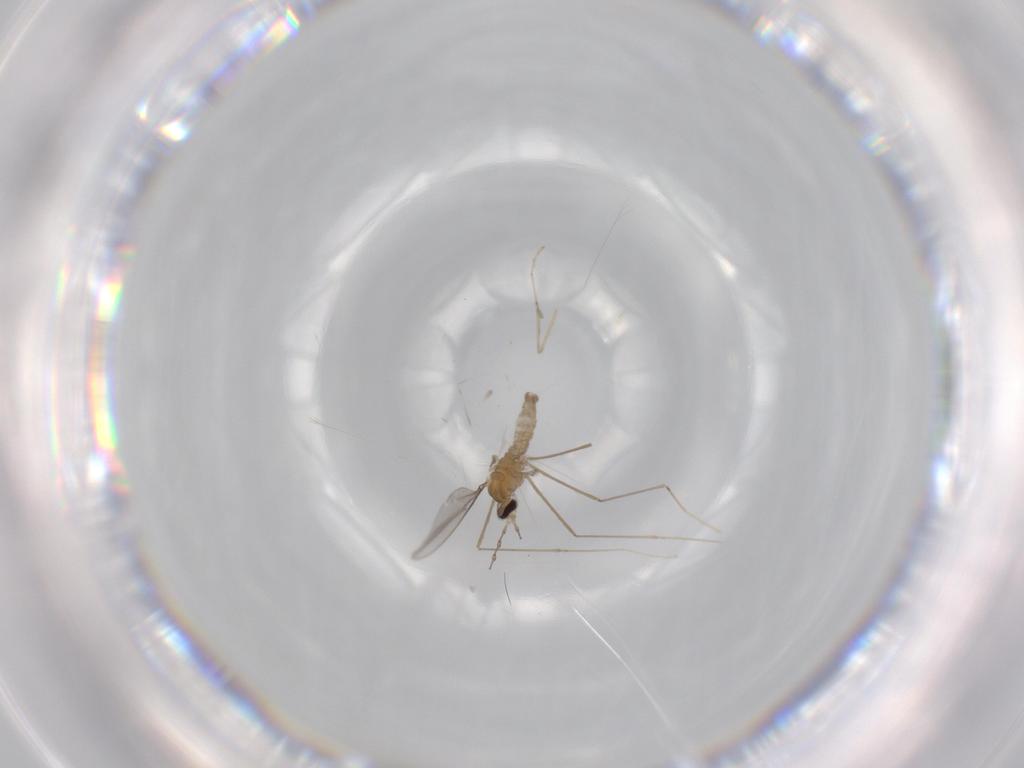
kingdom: Animalia
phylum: Arthropoda
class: Insecta
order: Diptera
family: Cecidomyiidae
